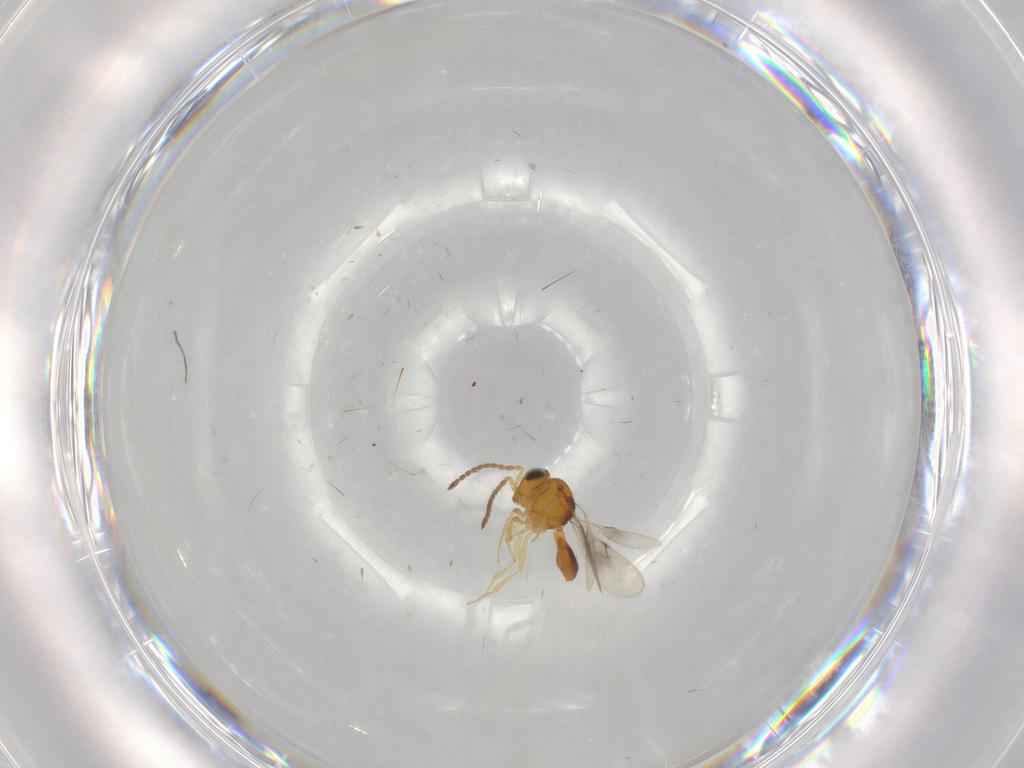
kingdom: Animalia
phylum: Arthropoda
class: Insecta
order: Hymenoptera
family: Scelionidae
